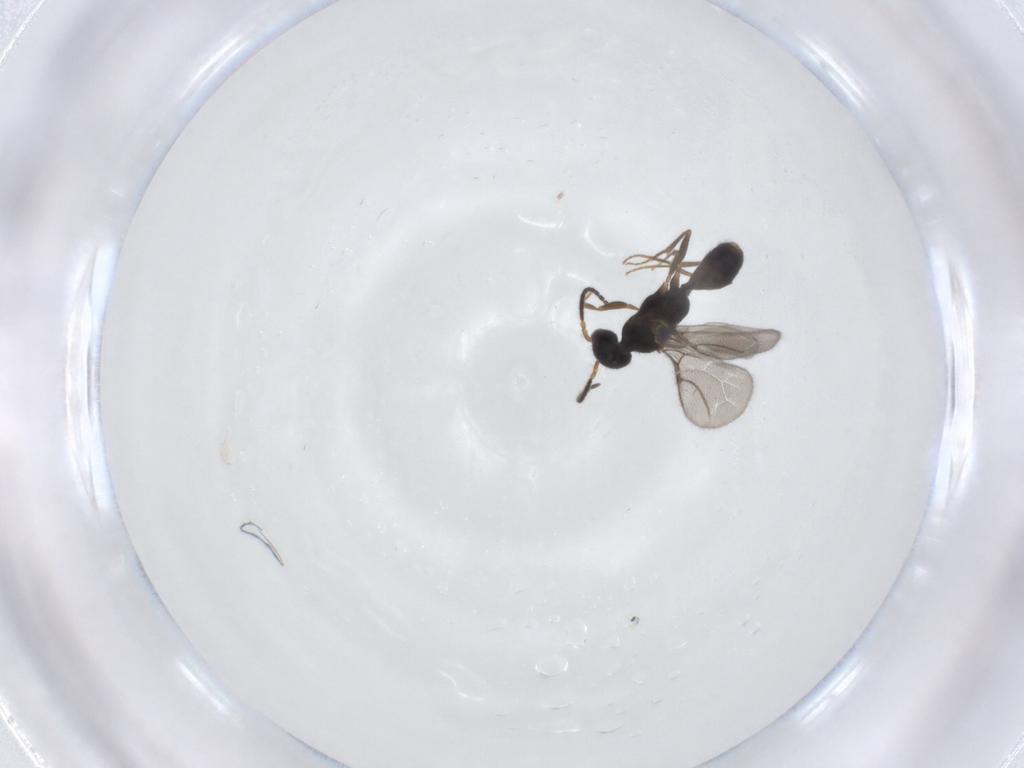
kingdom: Animalia
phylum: Arthropoda
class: Insecta
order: Hymenoptera
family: Bethylidae
